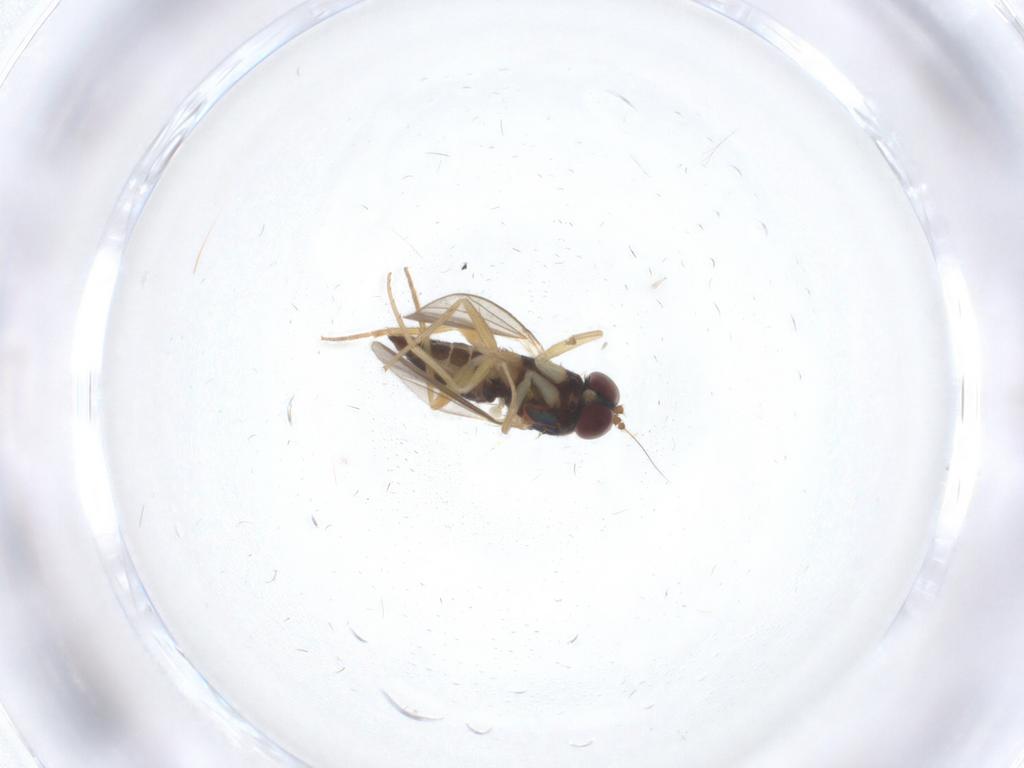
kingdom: Animalia
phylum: Arthropoda
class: Insecta
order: Diptera
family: Dolichopodidae
